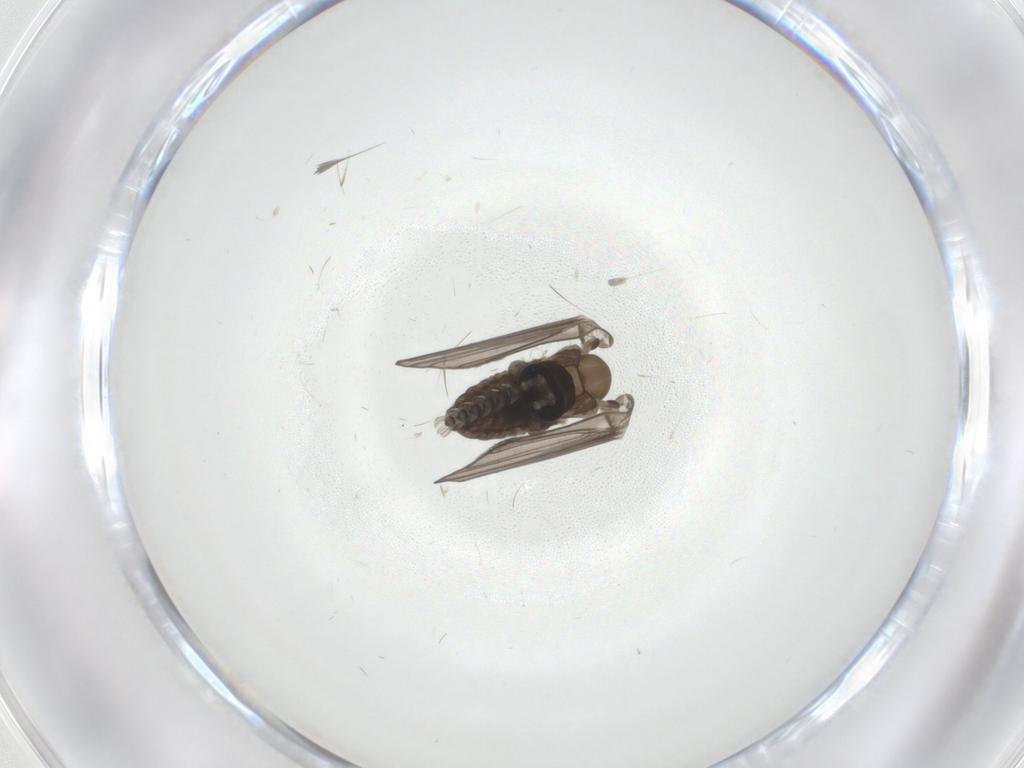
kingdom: Animalia
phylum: Arthropoda
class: Insecta
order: Diptera
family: Phoridae
